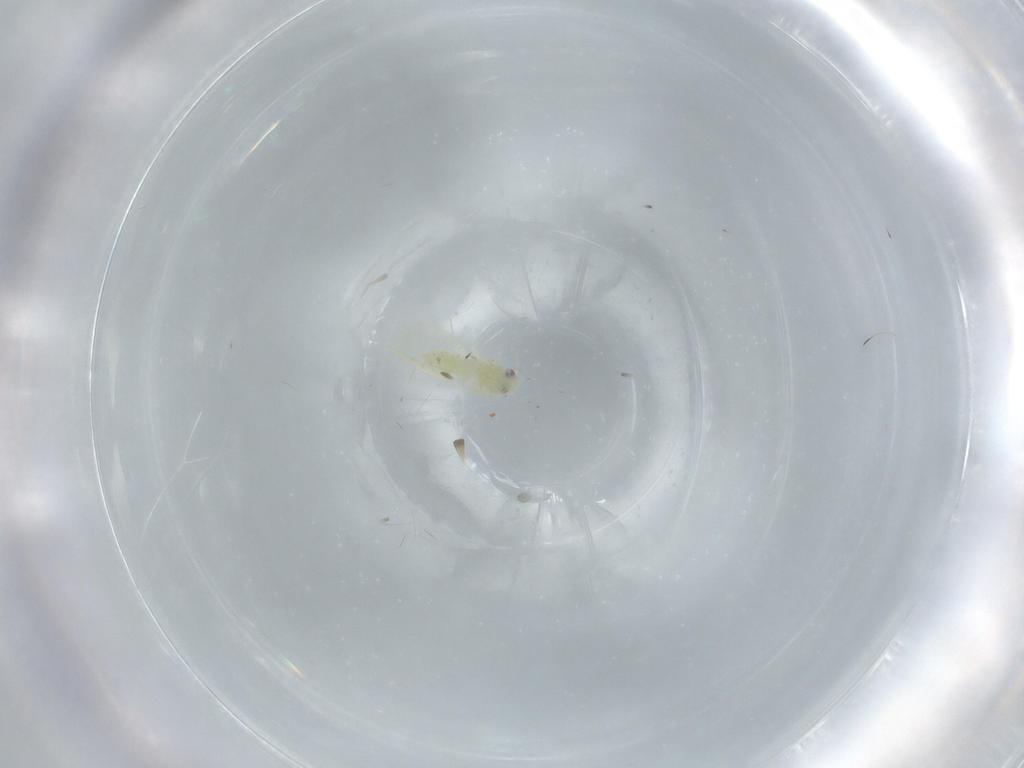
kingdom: Animalia
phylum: Arthropoda
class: Insecta
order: Hemiptera
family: Aleyrodidae
